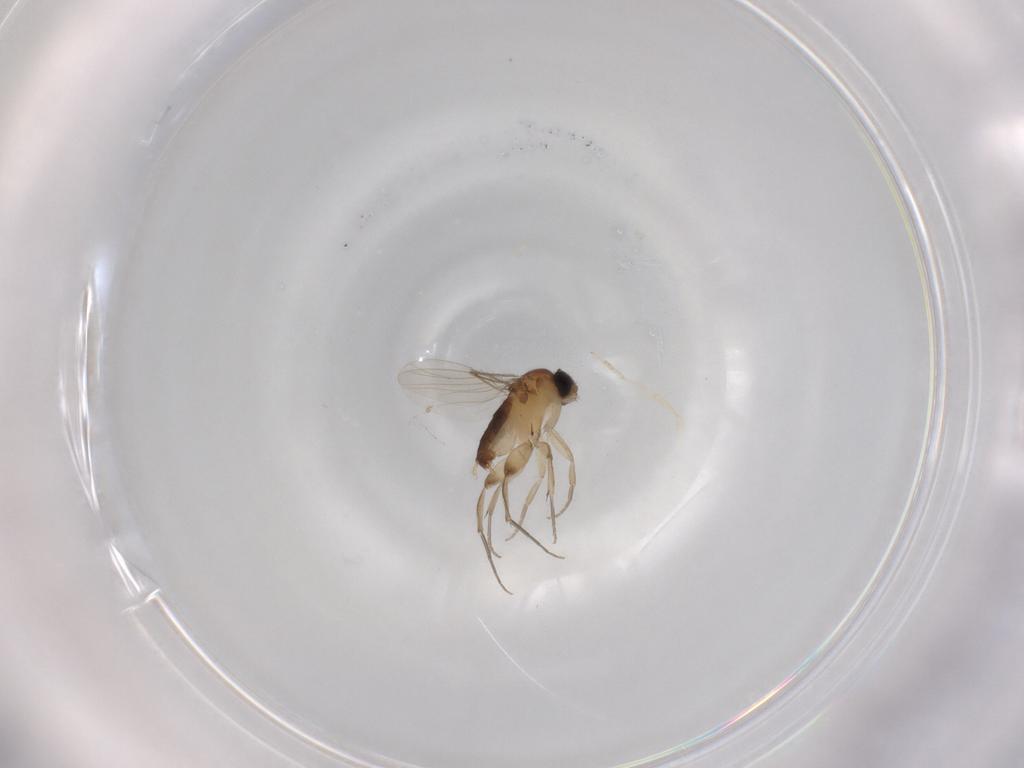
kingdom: Animalia
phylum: Arthropoda
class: Insecta
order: Diptera
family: Phoridae
